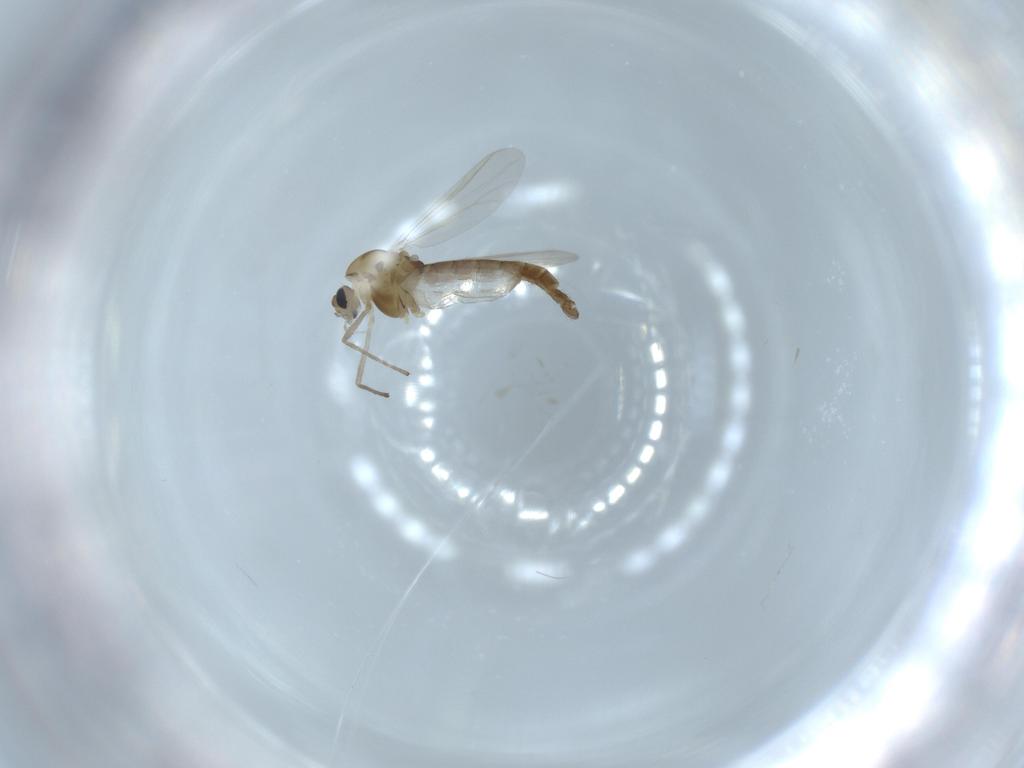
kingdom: Animalia
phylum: Arthropoda
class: Insecta
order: Diptera
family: Chironomidae
